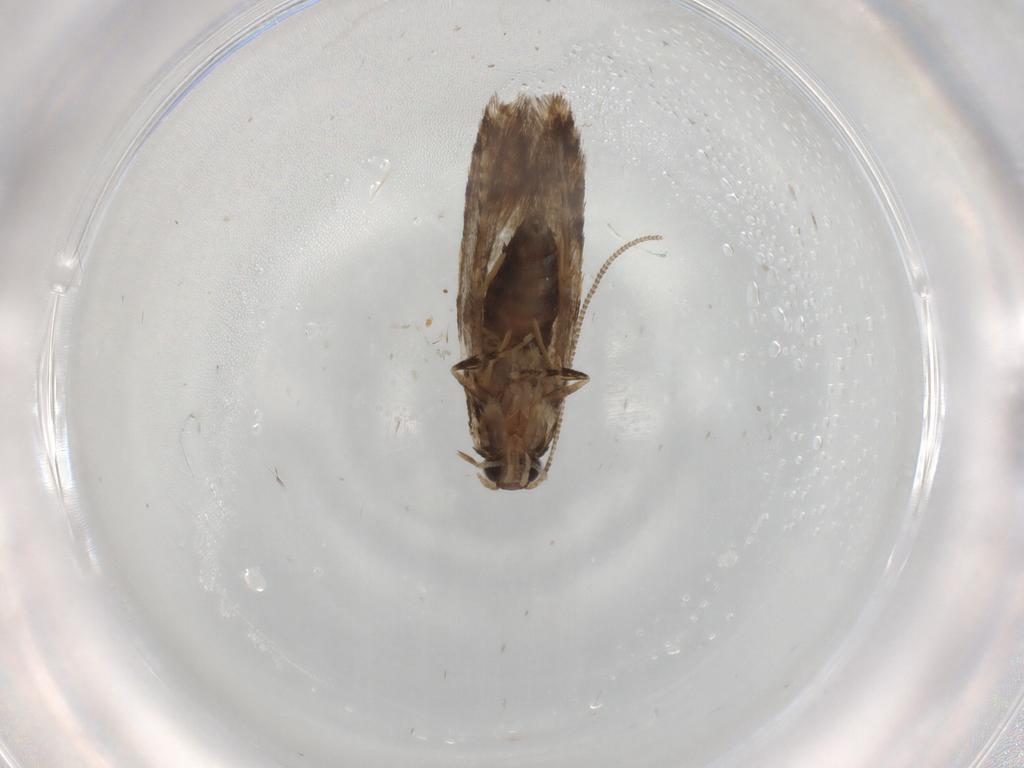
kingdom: Animalia
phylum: Arthropoda
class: Insecta
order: Lepidoptera
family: Tineidae
